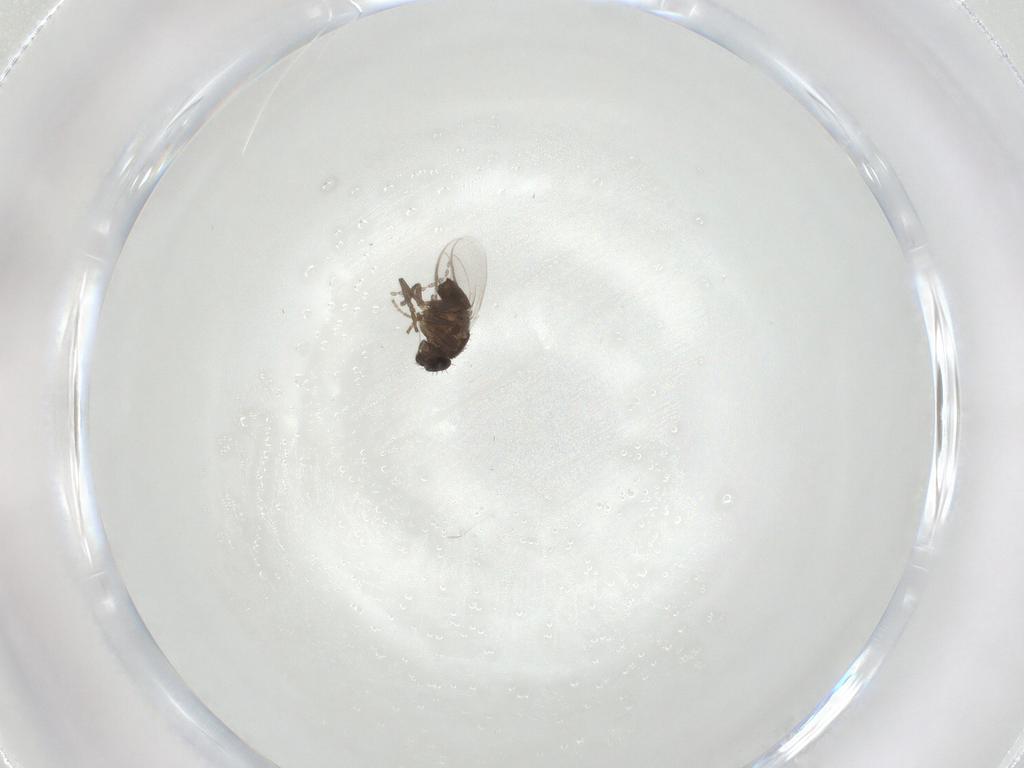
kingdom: Animalia
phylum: Arthropoda
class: Insecta
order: Diptera
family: Sphaeroceridae
